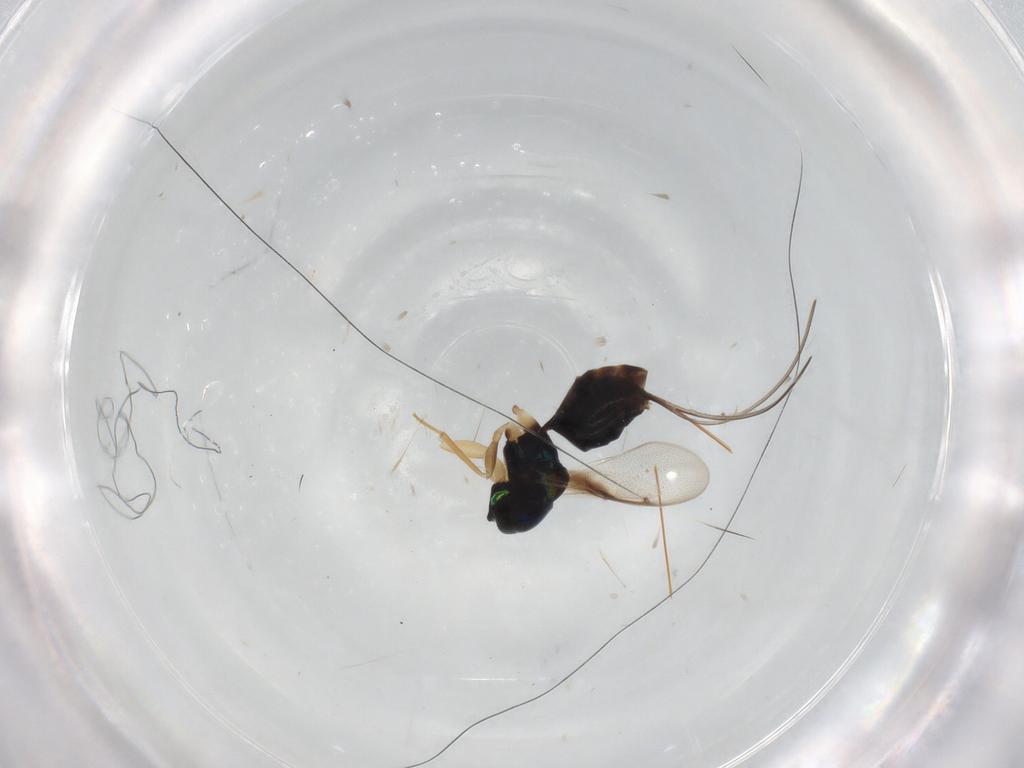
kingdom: Animalia
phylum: Arthropoda
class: Insecta
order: Hymenoptera
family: Torymidae
